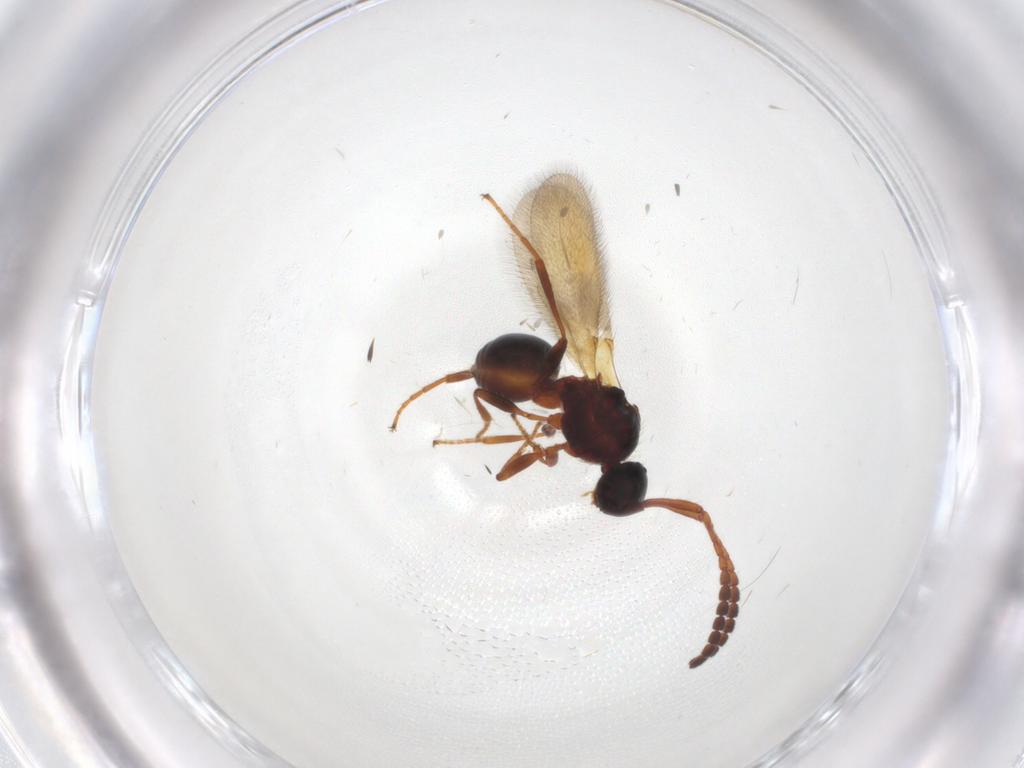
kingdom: Animalia
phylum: Arthropoda
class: Insecta
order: Hymenoptera
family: Diapriidae
